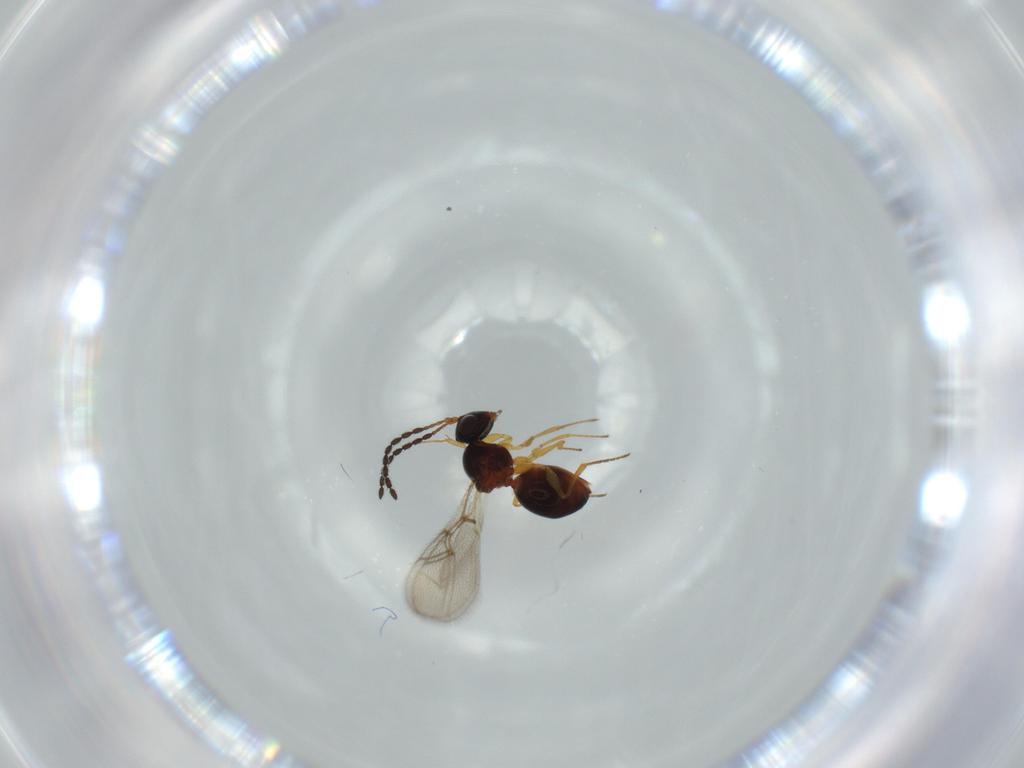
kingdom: Animalia
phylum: Arthropoda
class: Insecta
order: Hymenoptera
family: Figitidae
